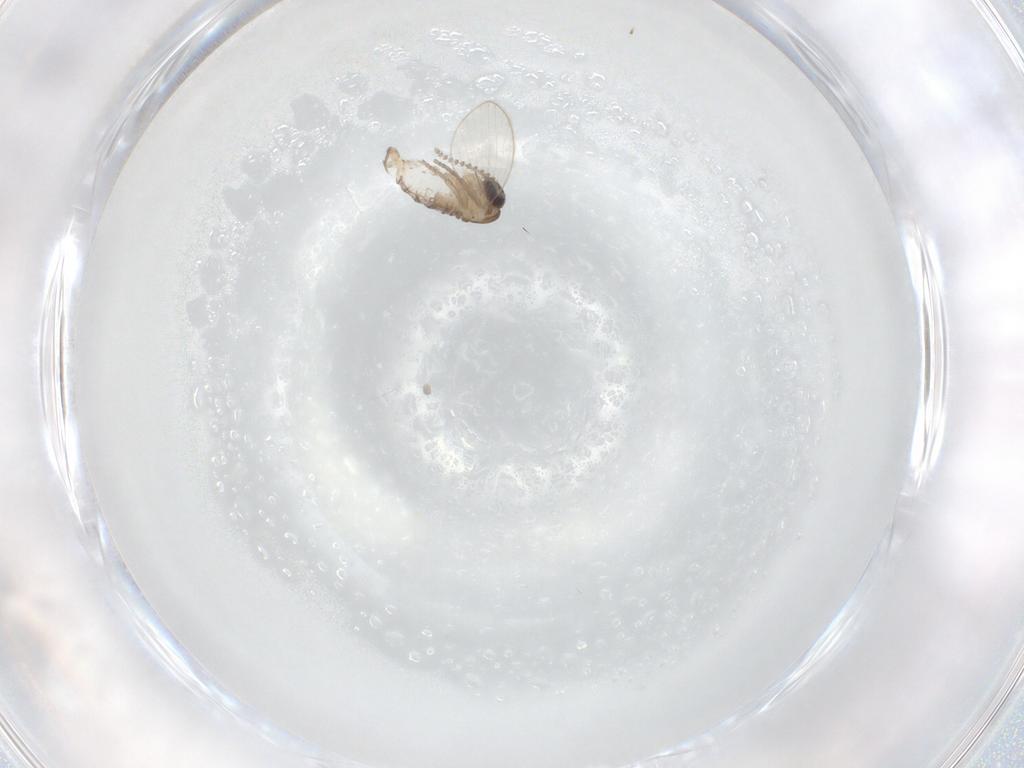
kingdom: Animalia
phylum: Arthropoda
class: Insecta
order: Diptera
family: Psychodidae
